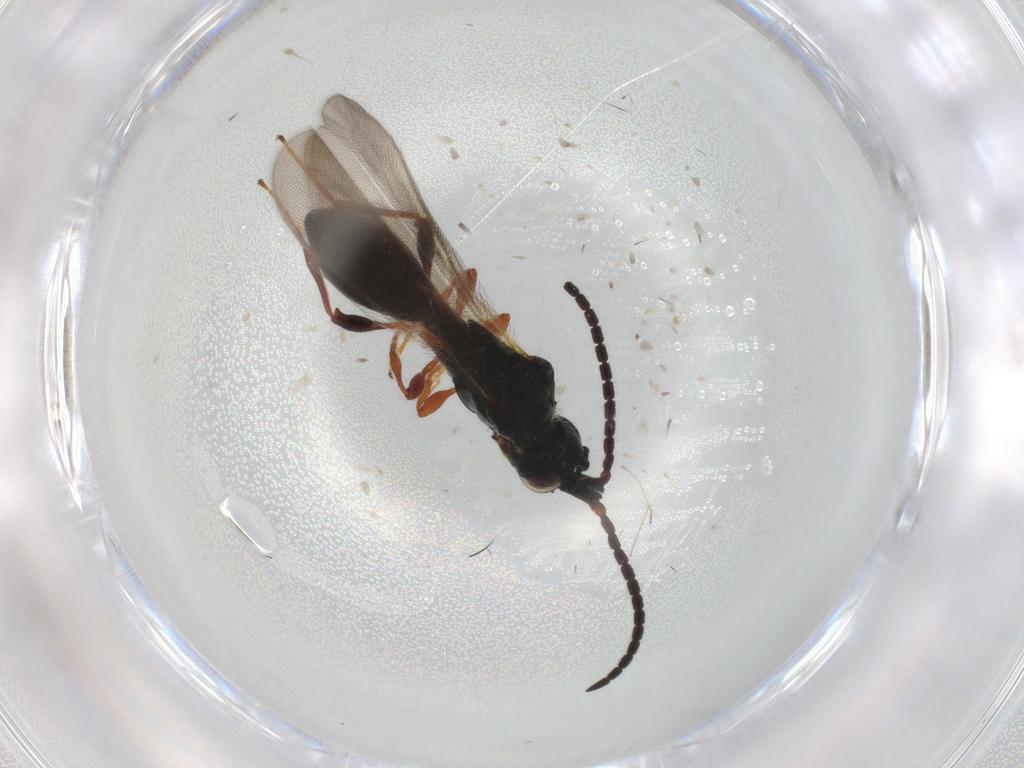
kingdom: Animalia
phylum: Arthropoda
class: Insecta
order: Hymenoptera
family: Diapriidae
